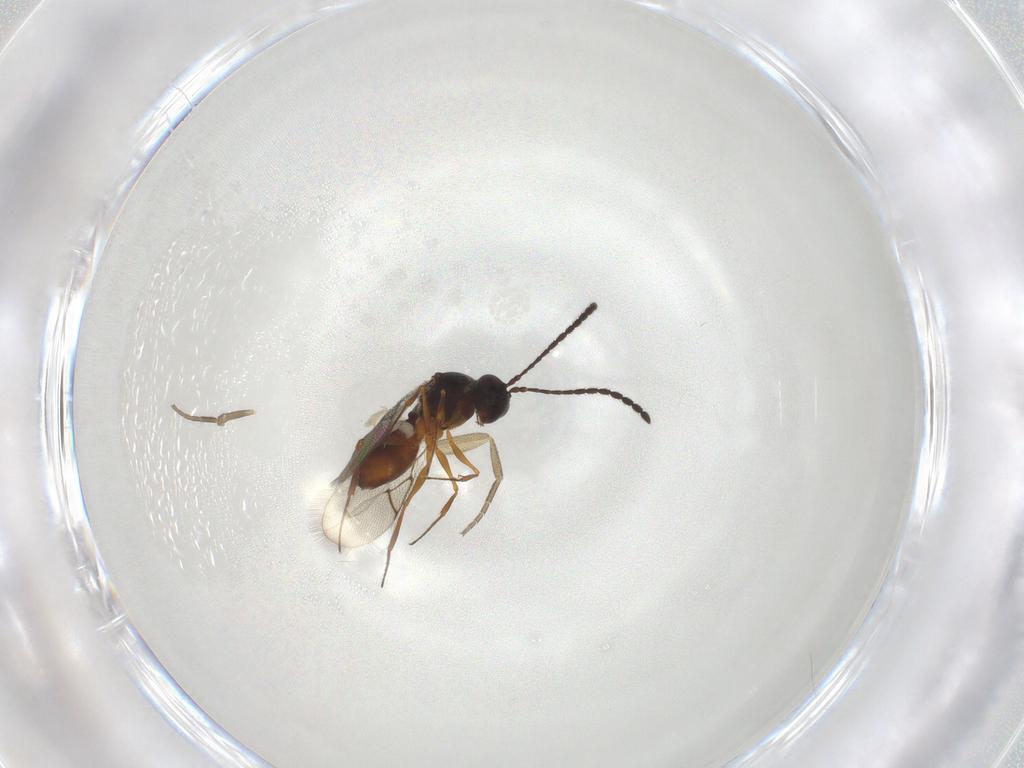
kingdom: Animalia
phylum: Arthropoda
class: Insecta
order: Hymenoptera
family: Figitidae
